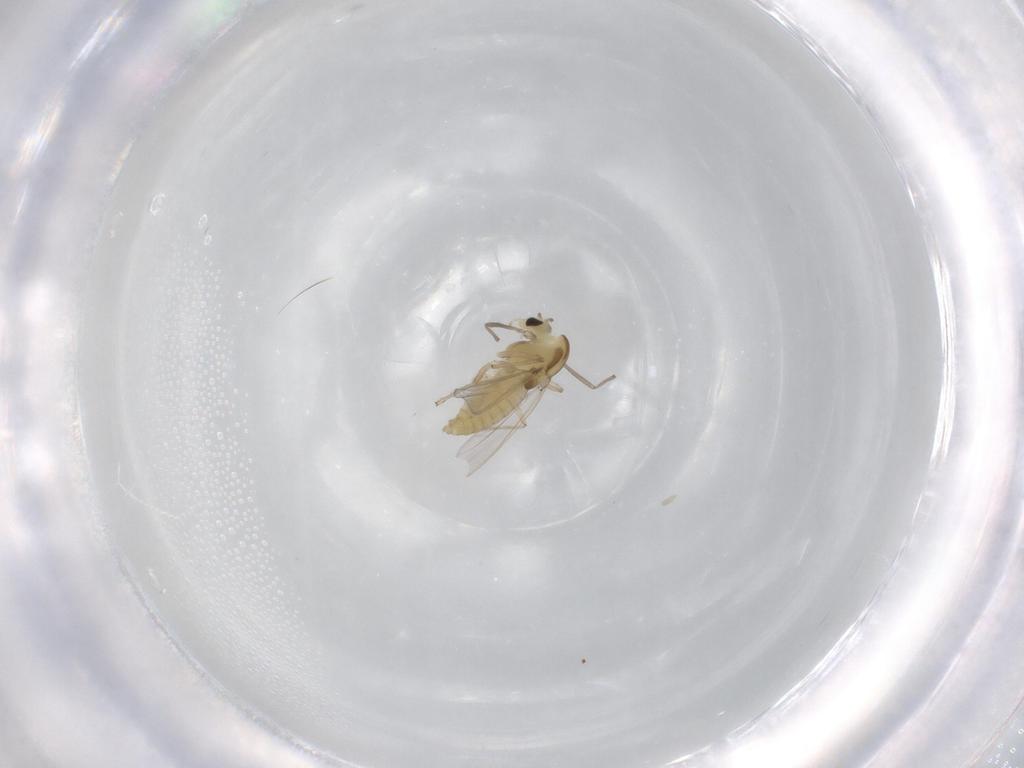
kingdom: Animalia
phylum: Arthropoda
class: Insecta
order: Diptera
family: Chironomidae
